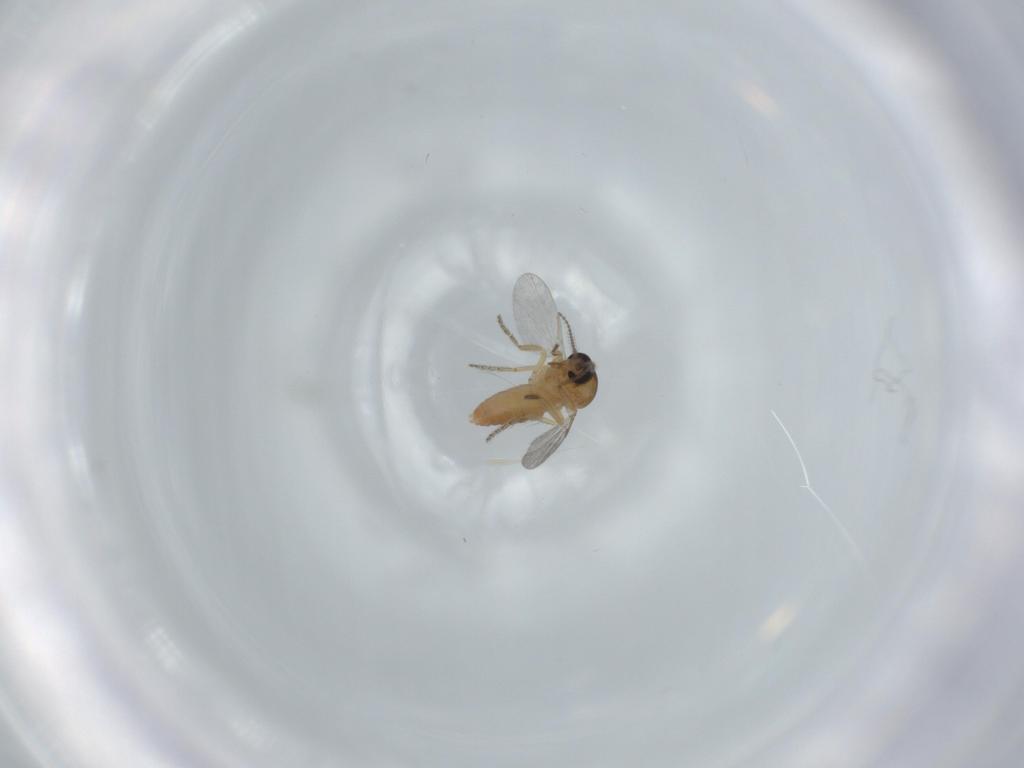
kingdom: Animalia
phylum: Arthropoda
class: Insecta
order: Diptera
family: Ceratopogonidae
